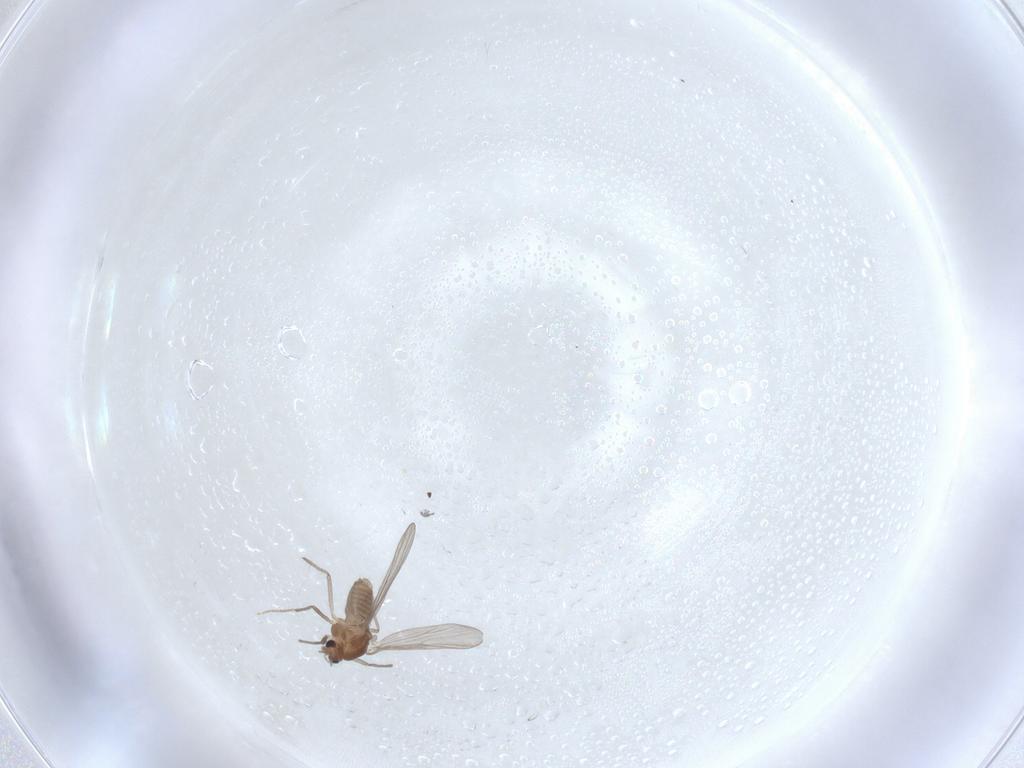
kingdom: Animalia
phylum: Arthropoda
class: Insecta
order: Diptera
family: Chironomidae
